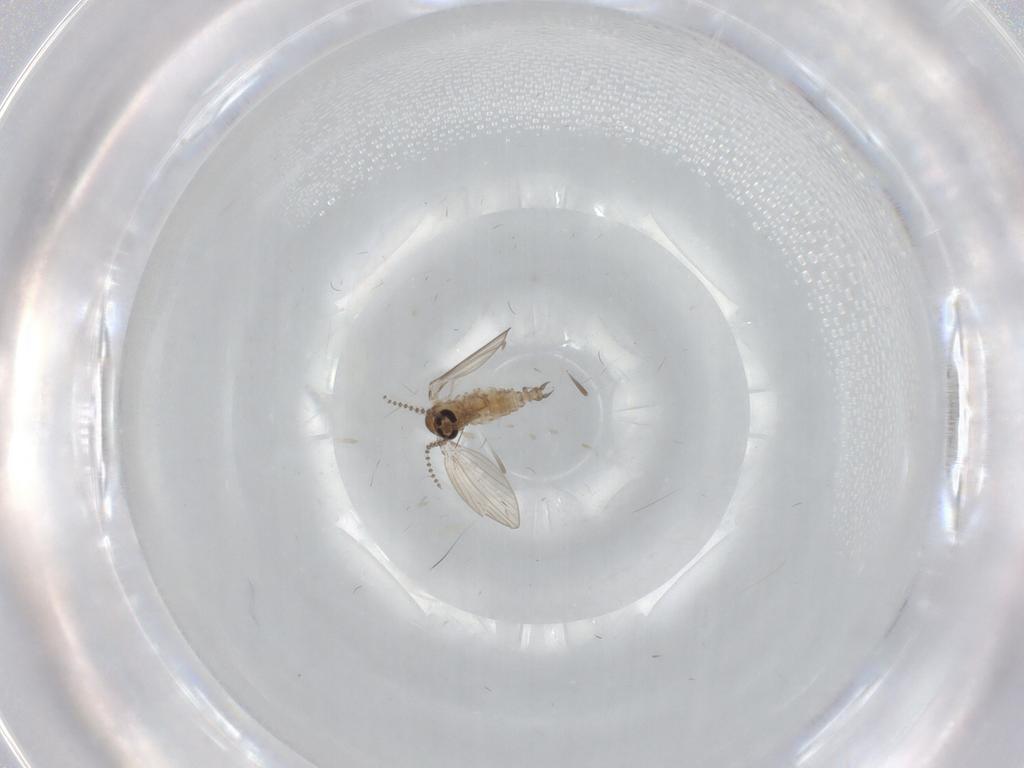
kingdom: Animalia
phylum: Arthropoda
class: Insecta
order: Diptera
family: Psychodidae
